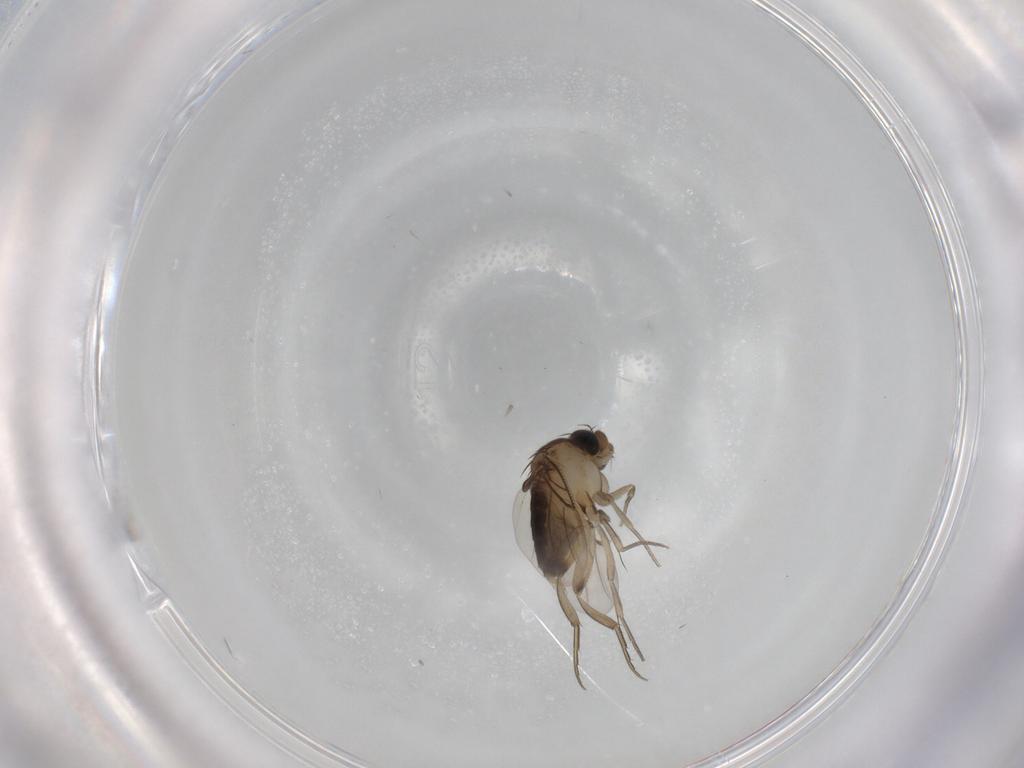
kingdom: Animalia
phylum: Arthropoda
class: Insecta
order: Diptera
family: Phoridae
